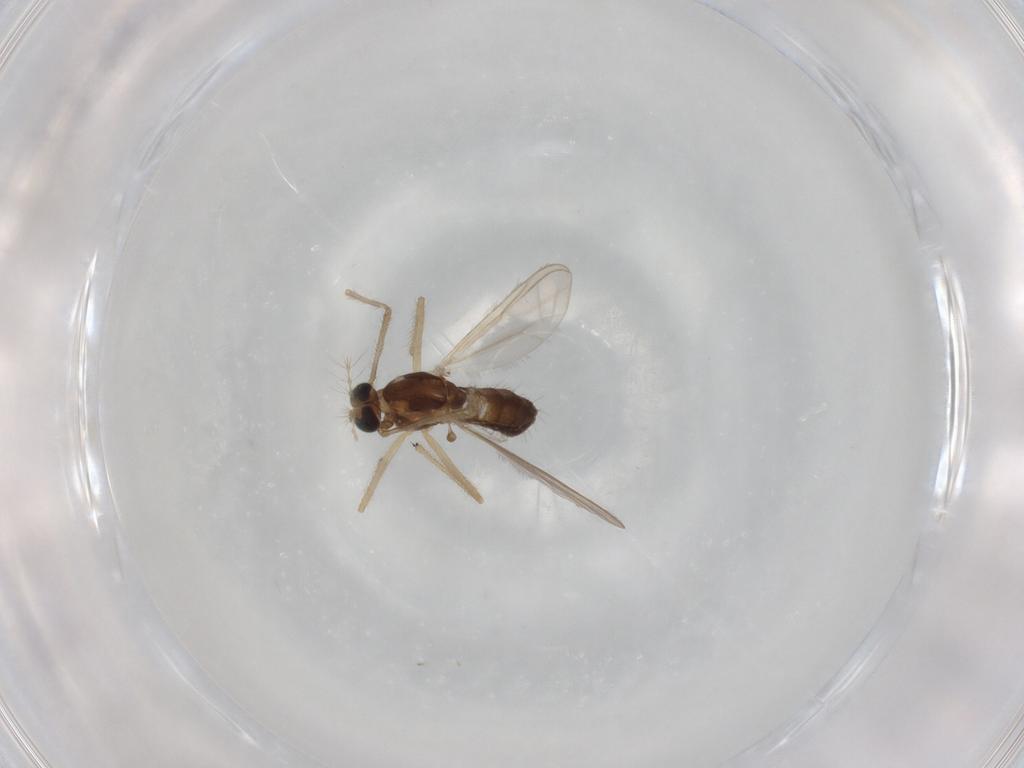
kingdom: Animalia
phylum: Arthropoda
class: Insecta
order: Diptera
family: Chironomidae
